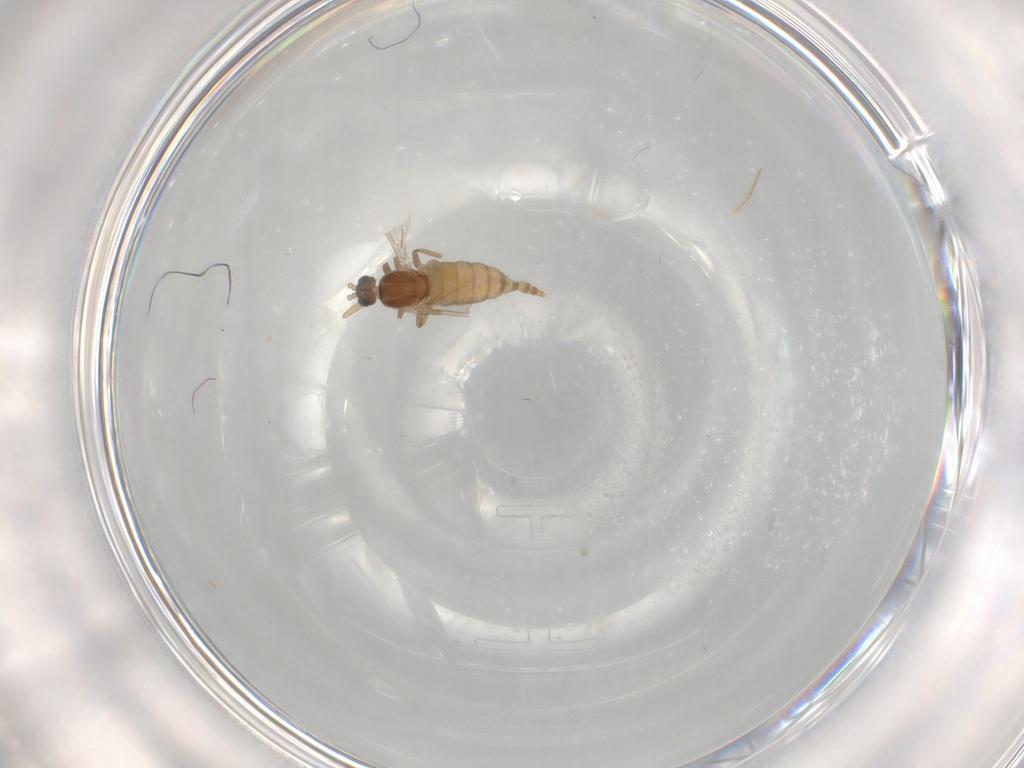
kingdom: Animalia
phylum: Arthropoda
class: Insecta
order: Diptera
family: Cecidomyiidae
